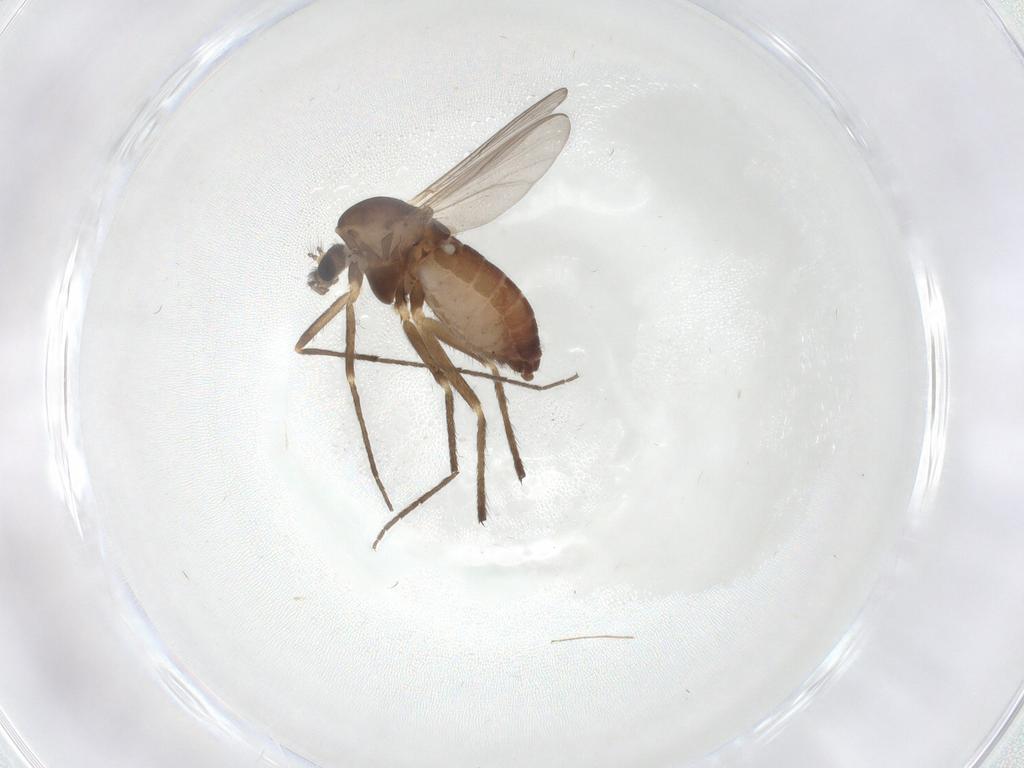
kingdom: Animalia
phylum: Arthropoda
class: Insecta
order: Diptera
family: Chironomidae
